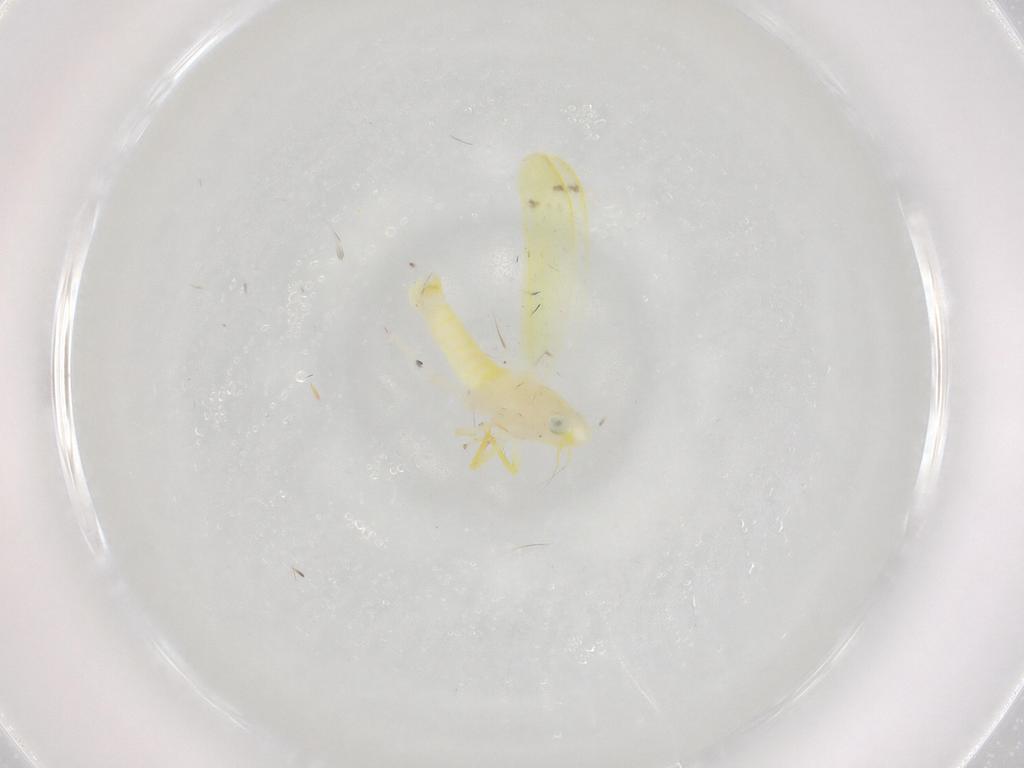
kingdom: Animalia
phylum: Arthropoda
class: Insecta
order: Hemiptera
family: Cicadellidae
